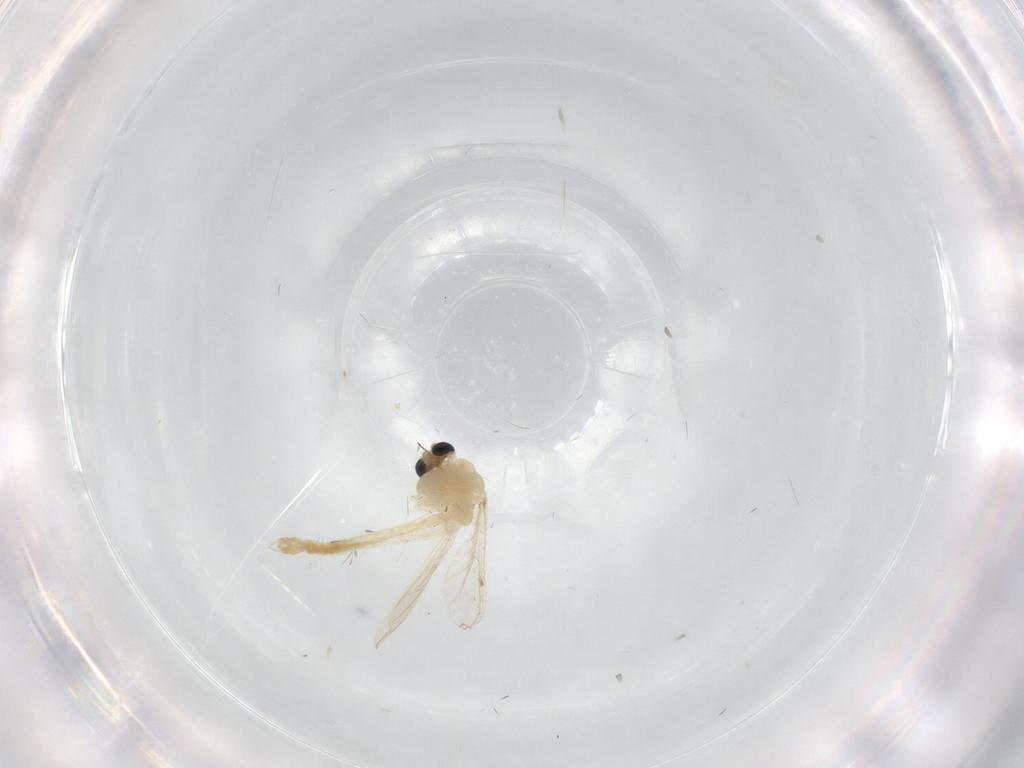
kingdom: Animalia
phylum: Arthropoda
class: Insecta
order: Diptera
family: Chironomidae
